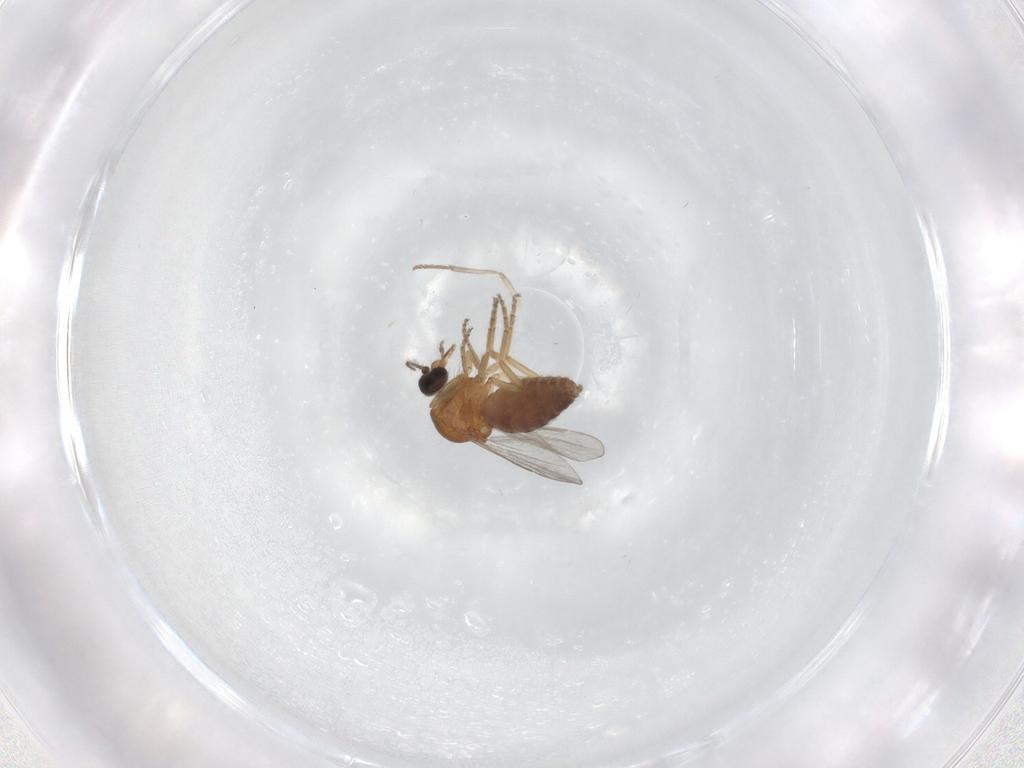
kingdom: Animalia
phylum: Arthropoda
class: Insecta
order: Diptera
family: Ceratopogonidae
